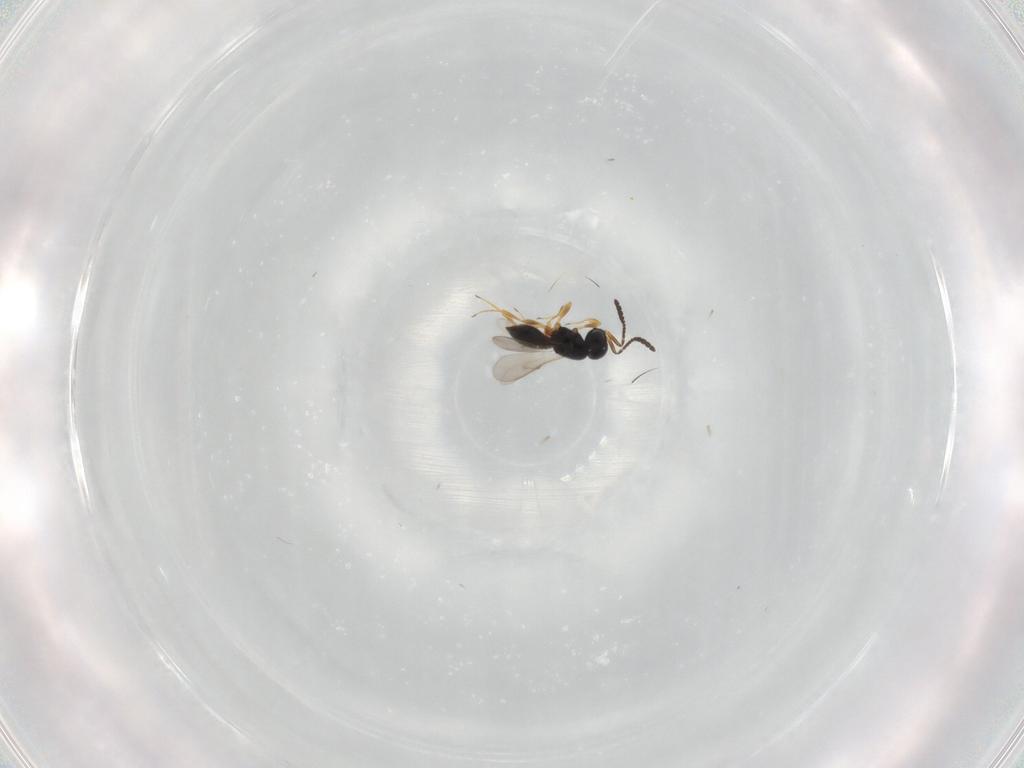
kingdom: Animalia
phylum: Arthropoda
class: Insecta
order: Hymenoptera
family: Scelionidae
